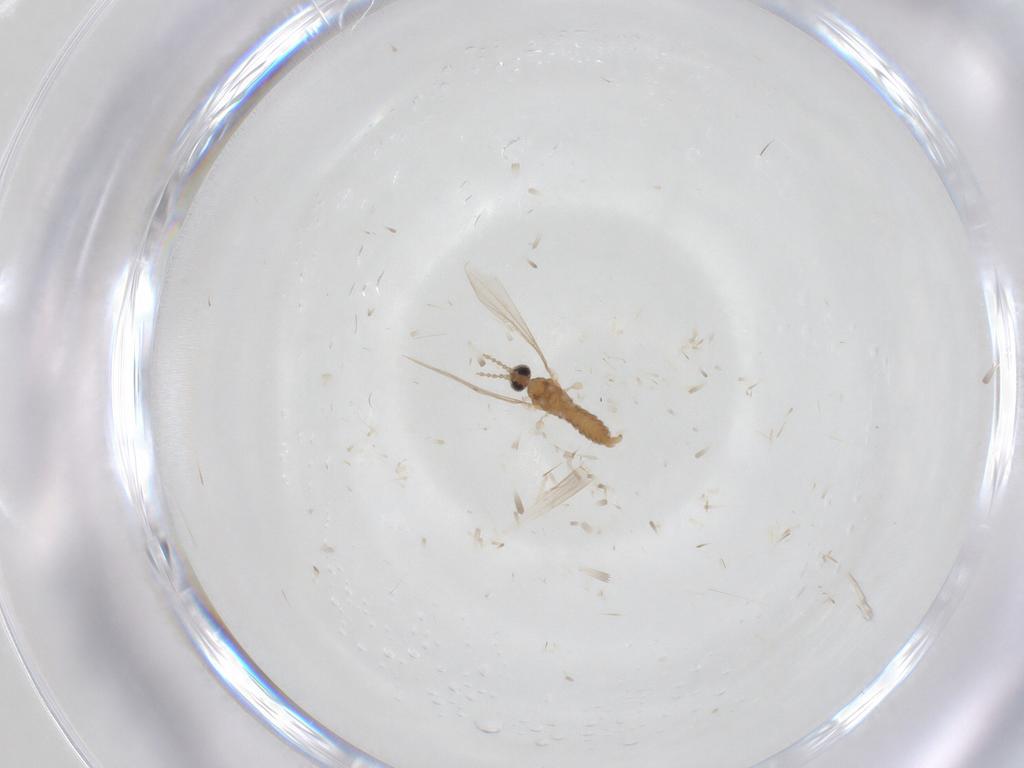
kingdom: Animalia
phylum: Arthropoda
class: Insecta
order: Diptera
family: Cecidomyiidae
